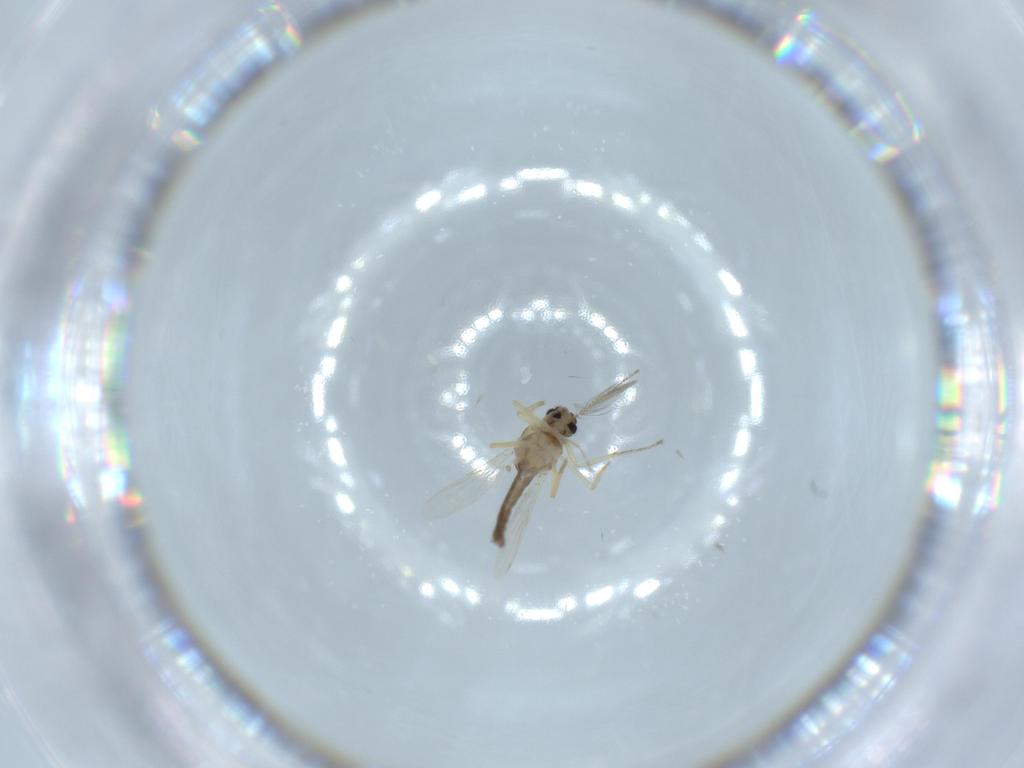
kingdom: Animalia
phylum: Arthropoda
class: Insecta
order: Diptera
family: Ceratopogonidae
